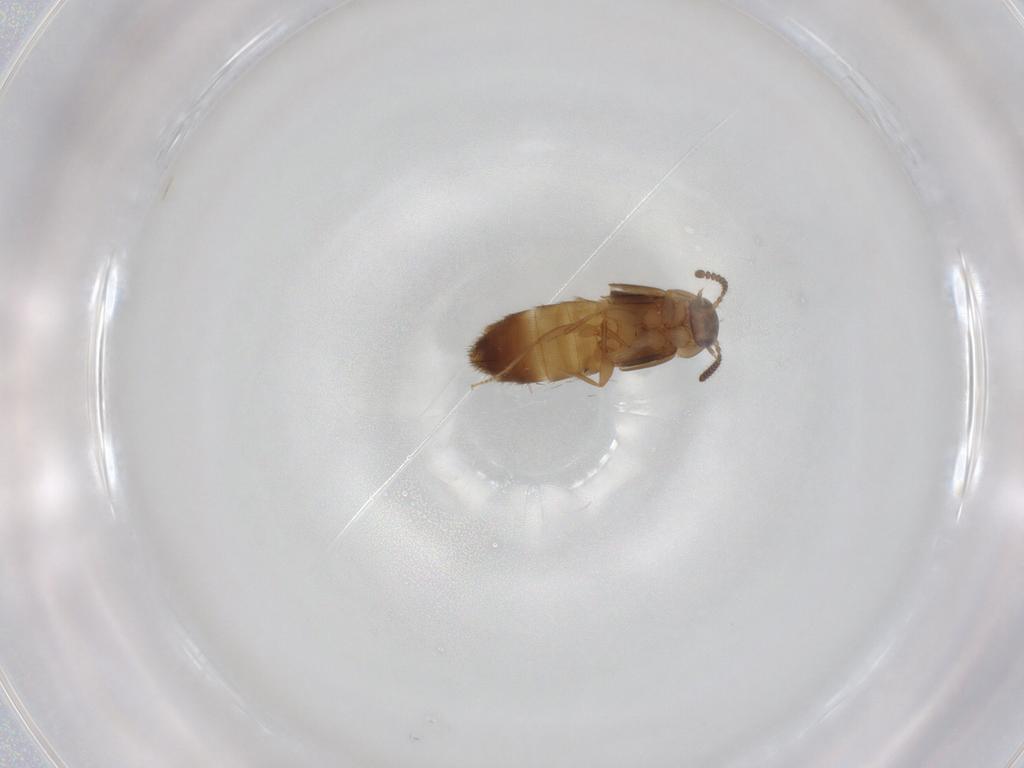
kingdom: Animalia
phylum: Arthropoda
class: Insecta
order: Coleoptera
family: Staphylinidae
